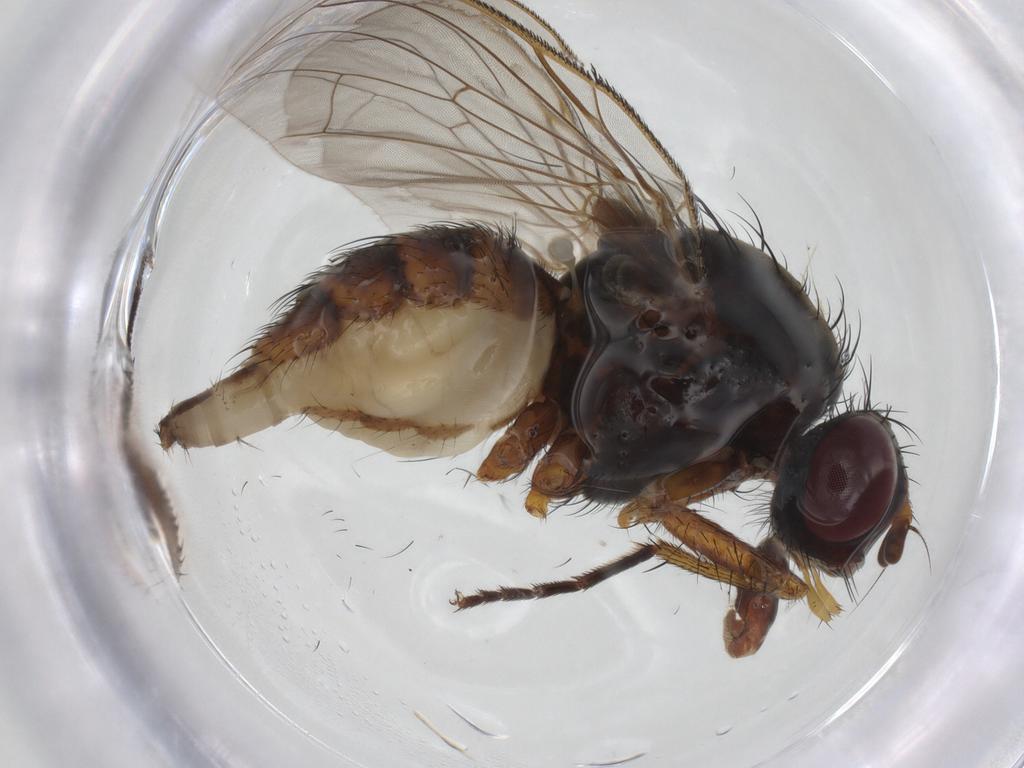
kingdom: Animalia
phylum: Arthropoda
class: Insecta
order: Diptera
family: Anthomyiidae
